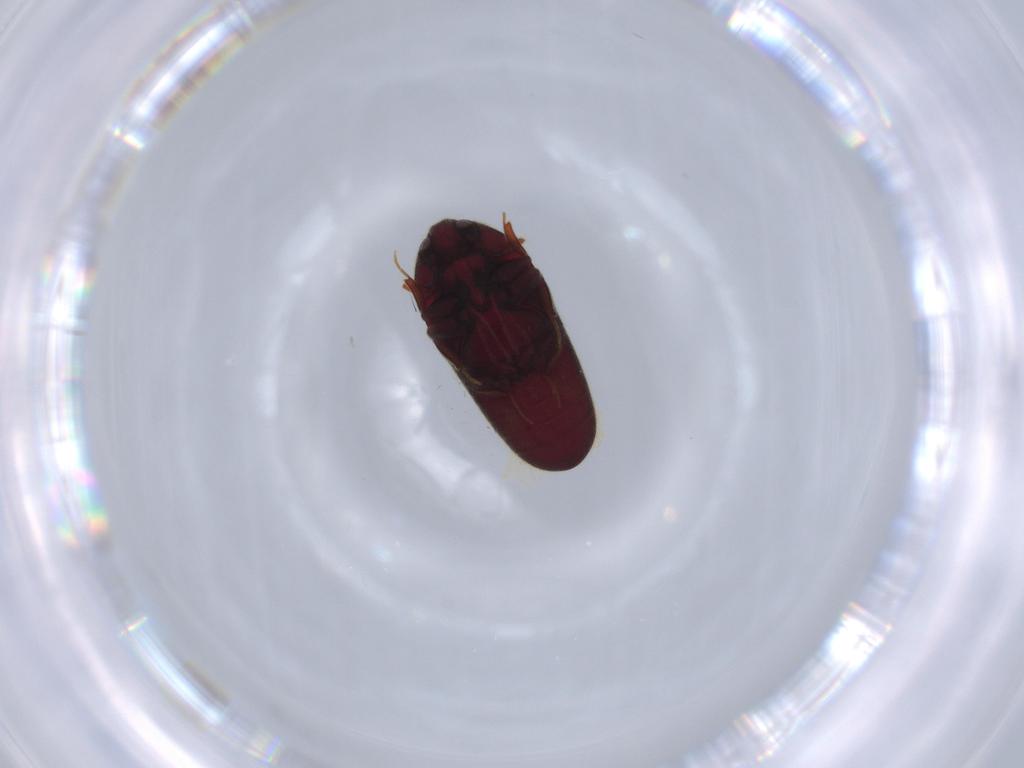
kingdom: Animalia
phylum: Arthropoda
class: Insecta
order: Coleoptera
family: Throscidae
